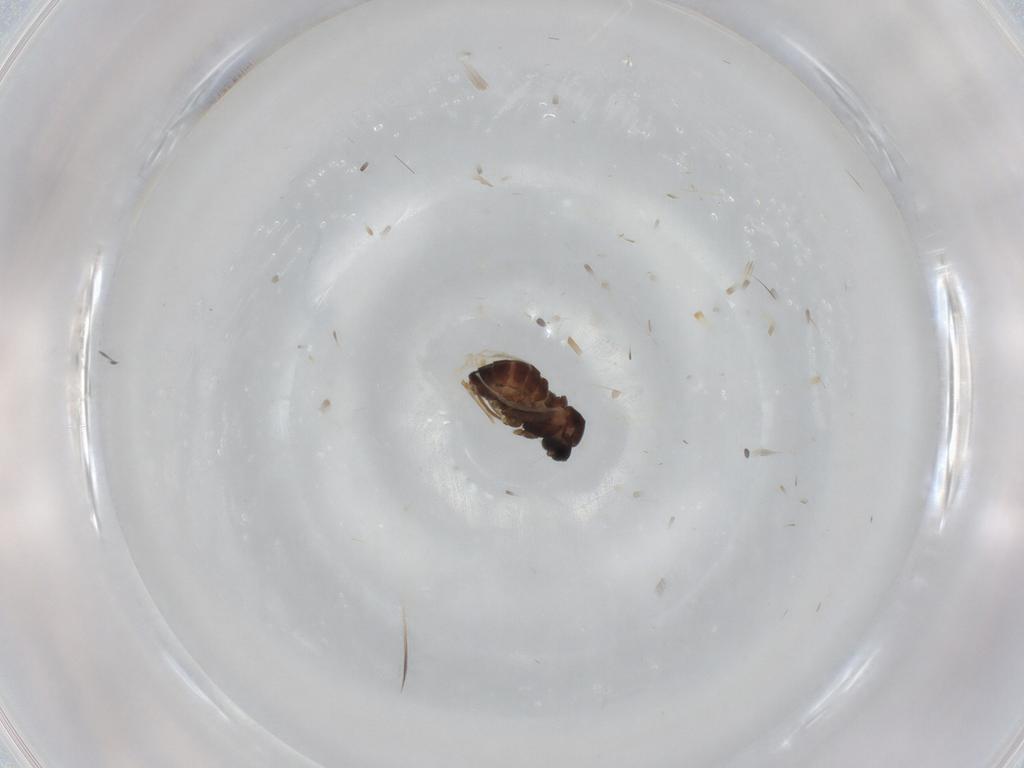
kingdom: Animalia
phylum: Arthropoda
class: Insecta
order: Diptera
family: Cecidomyiidae
